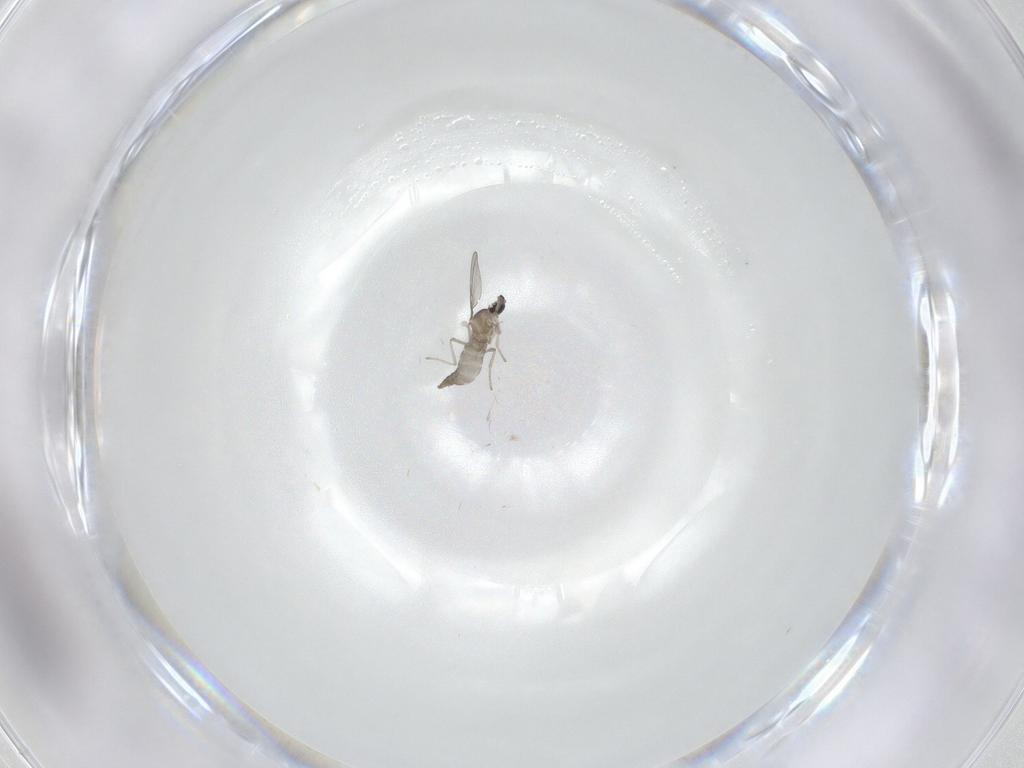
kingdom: Animalia
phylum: Arthropoda
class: Insecta
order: Diptera
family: Cecidomyiidae
